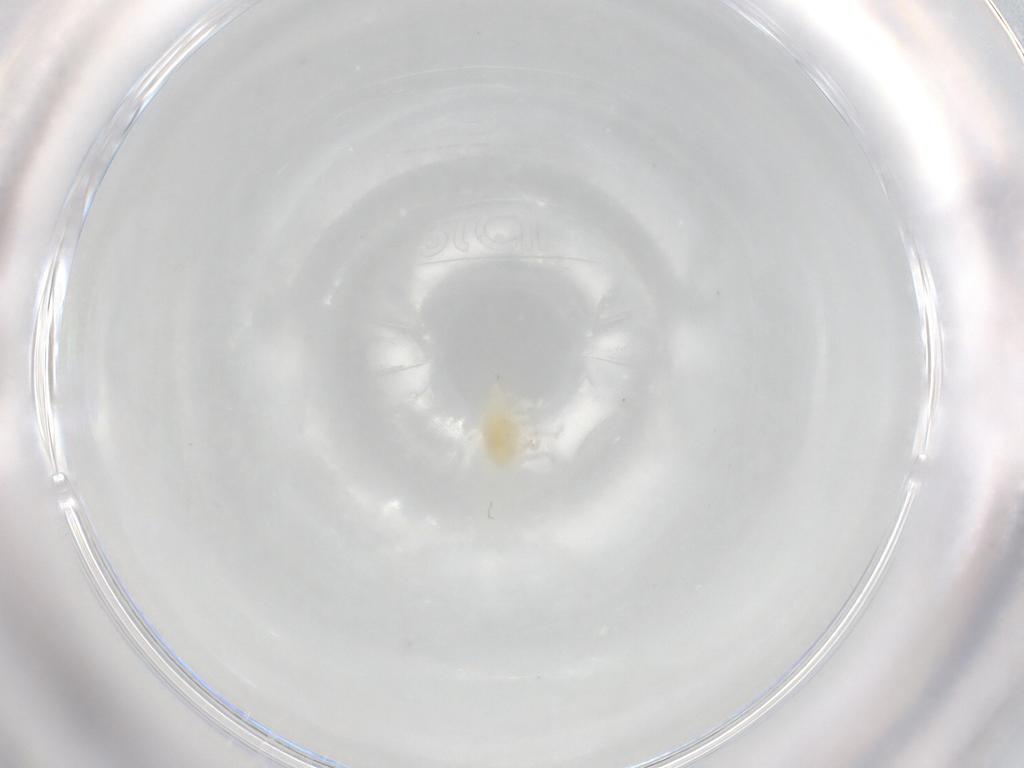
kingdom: Animalia
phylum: Arthropoda
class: Arachnida
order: Trombidiformes
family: Bdellidae
